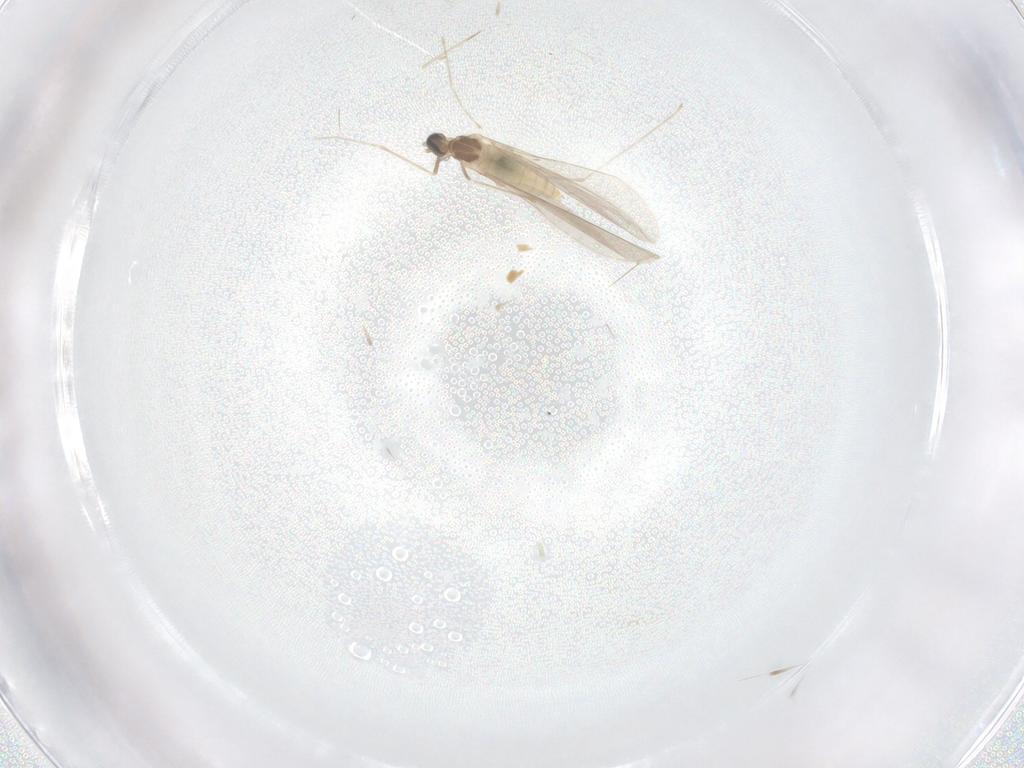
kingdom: Animalia
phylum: Arthropoda
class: Insecta
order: Diptera
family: Cecidomyiidae
